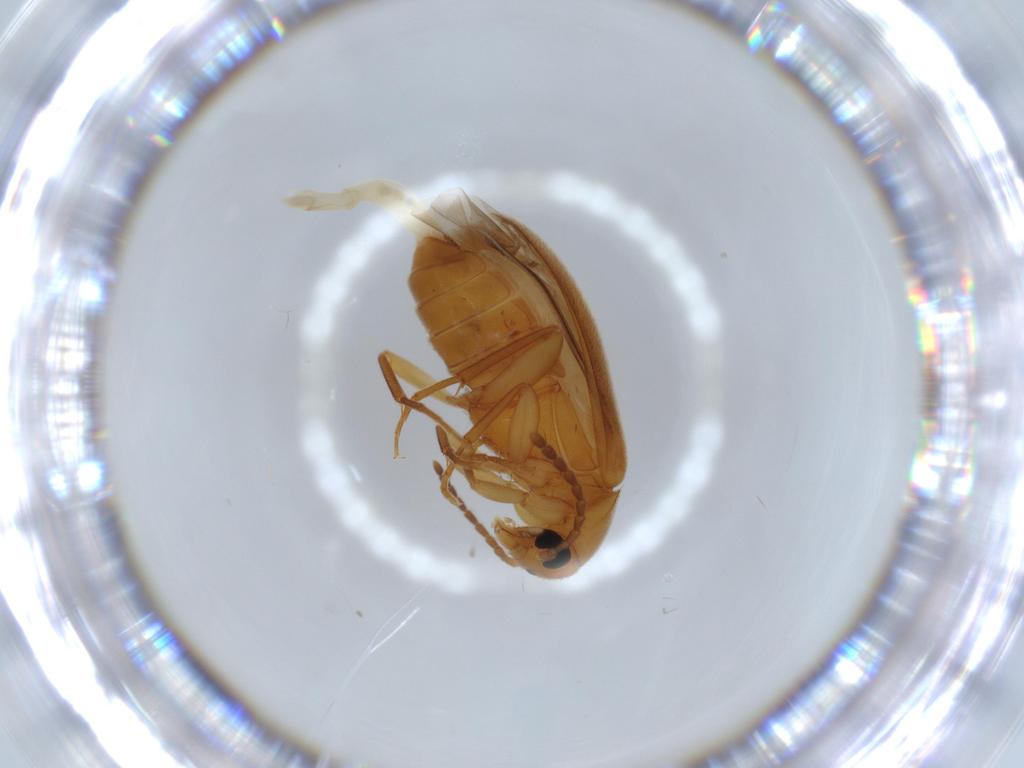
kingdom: Animalia
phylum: Arthropoda
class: Insecta
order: Coleoptera
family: Scraptiidae
